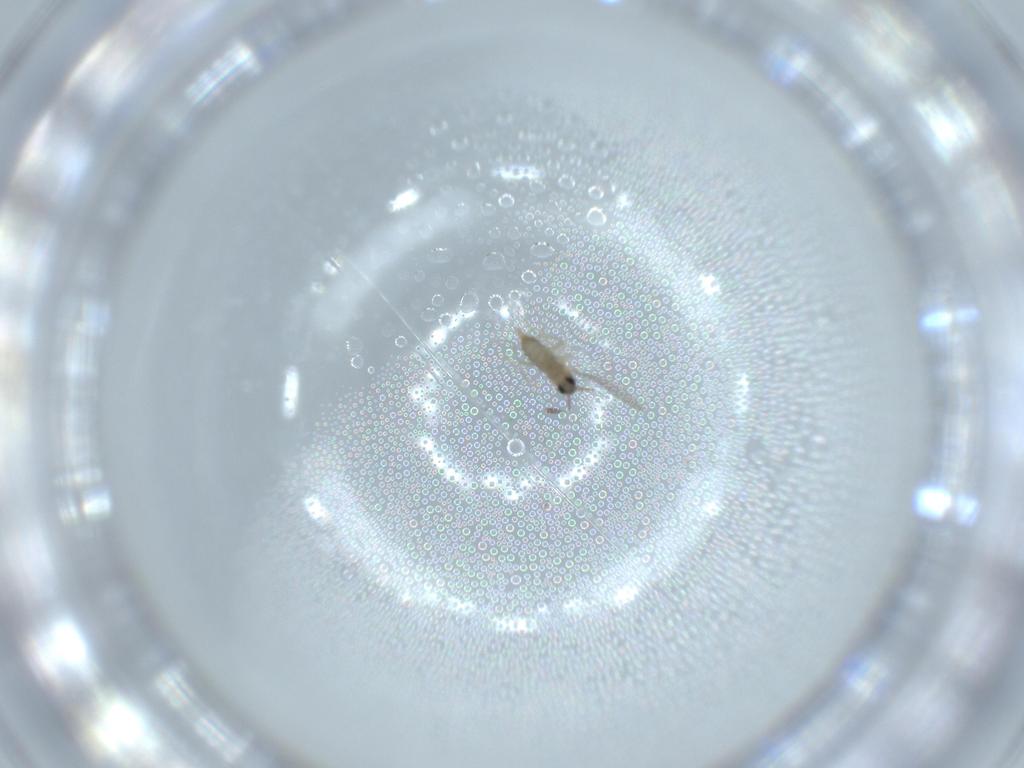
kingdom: Animalia
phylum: Arthropoda
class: Insecta
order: Diptera
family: Cecidomyiidae
